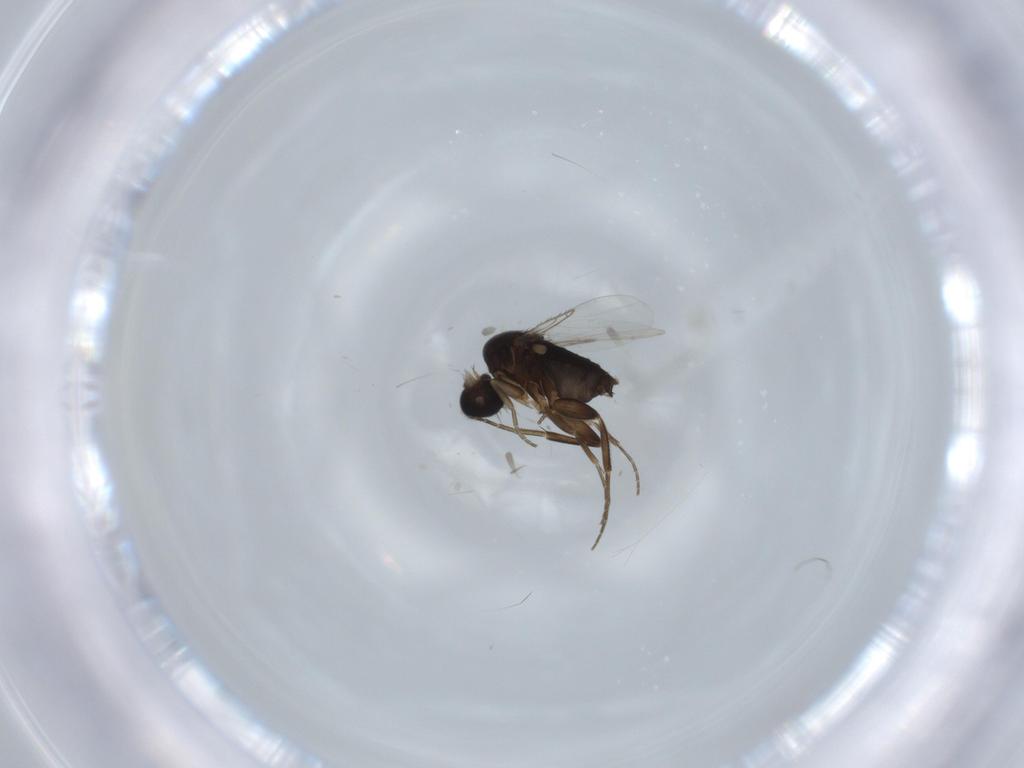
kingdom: Animalia
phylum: Arthropoda
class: Insecta
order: Diptera
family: Phoridae
